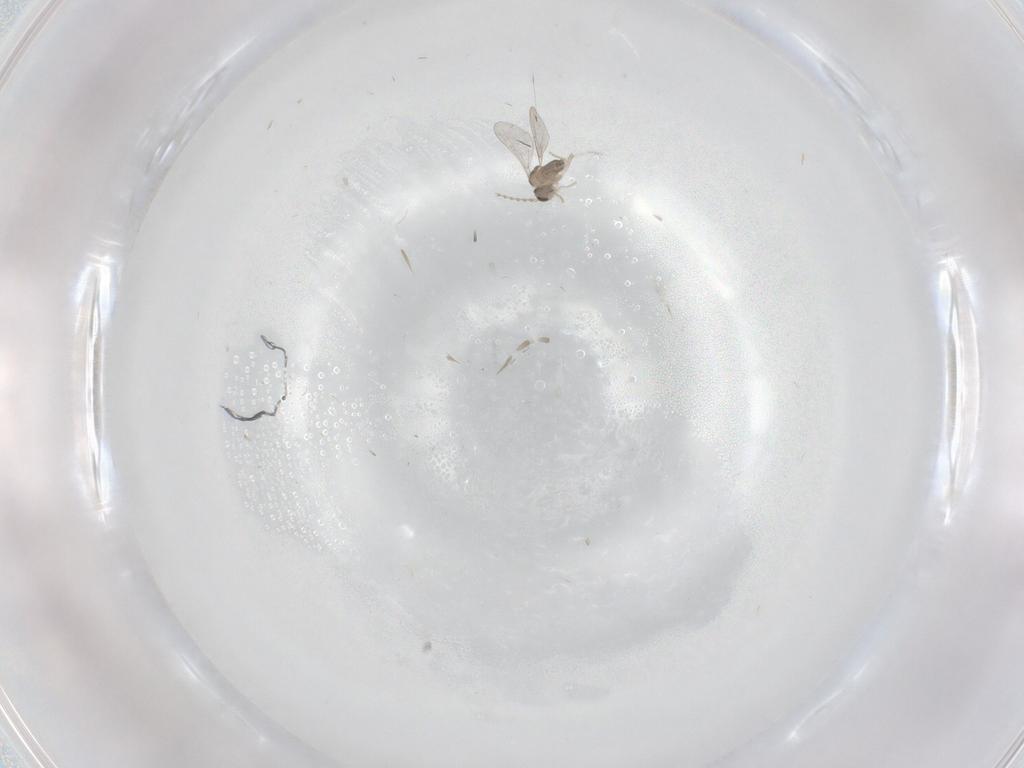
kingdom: Animalia
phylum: Arthropoda
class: Insecta
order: Diptera
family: Cecidomyiidae
